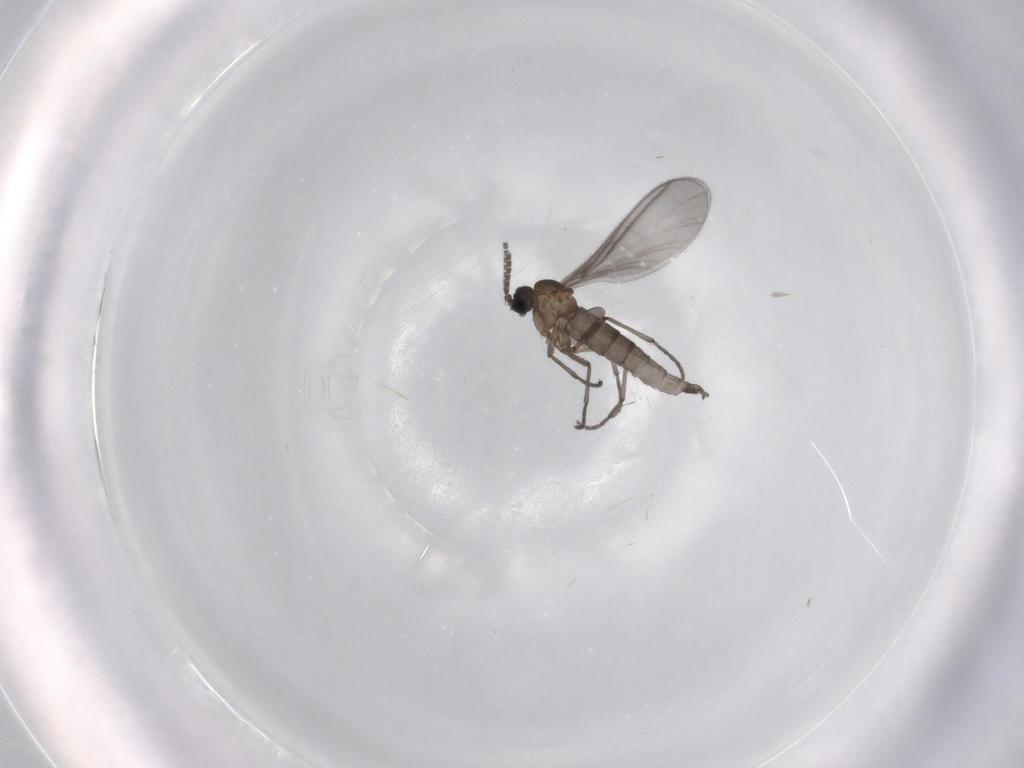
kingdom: Animalia
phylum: Arthropoda
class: Insecta
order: Diptera
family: Sciaridae
